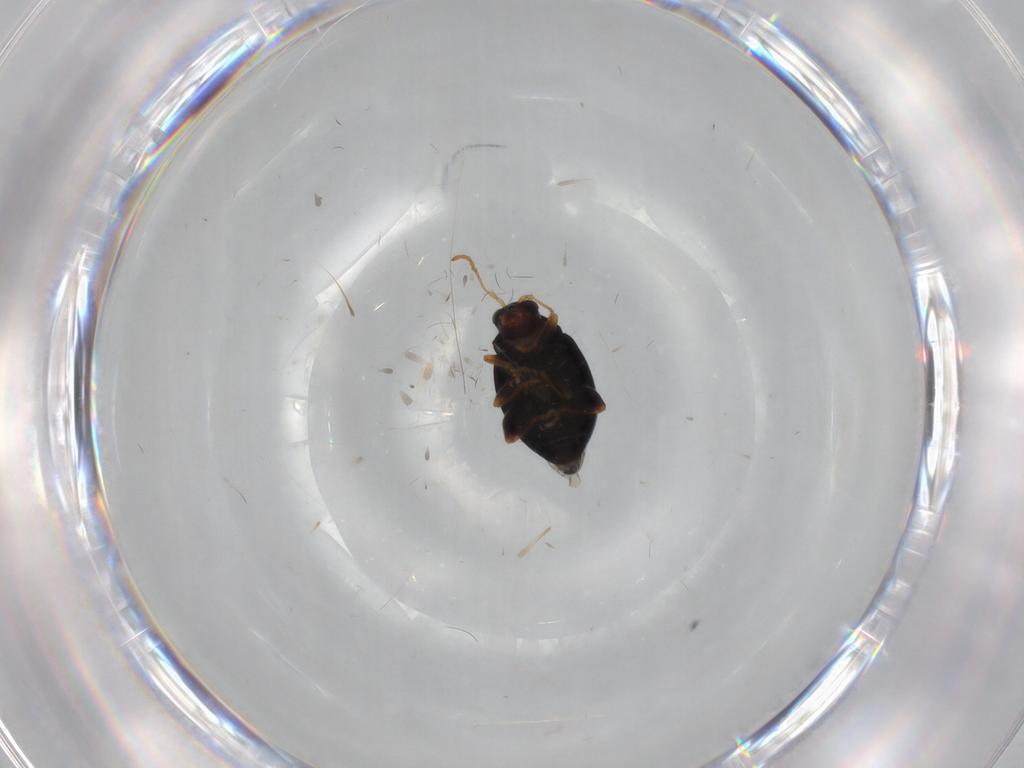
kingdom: Animalia
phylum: Arthropoda
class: Insecta
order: Coleoptera
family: Chrysomelidae
